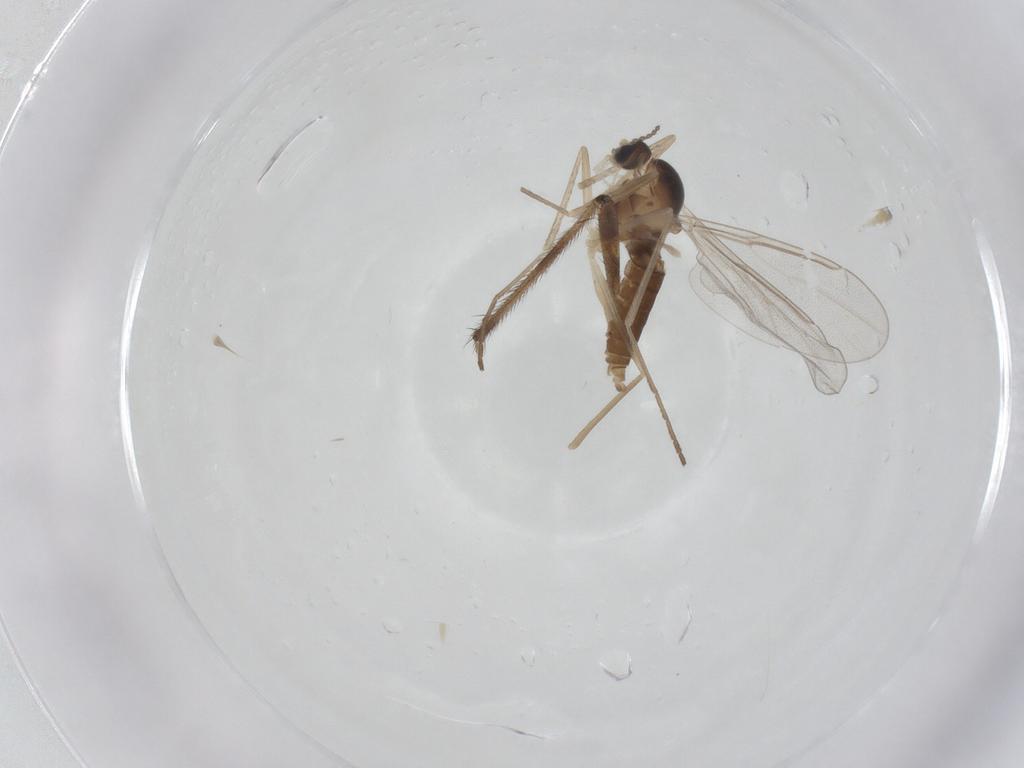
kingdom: Animalia
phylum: Arthropoda
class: Insecta
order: Diptera
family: Cecidomyiidae
